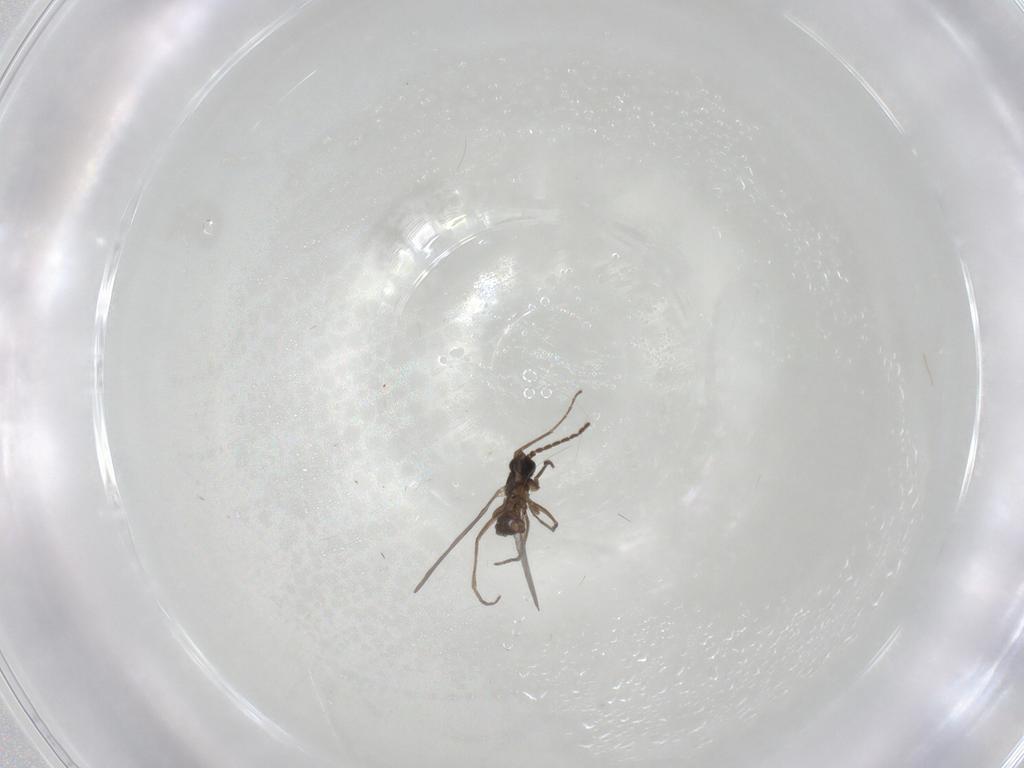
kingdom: Animalia
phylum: Arthropoda
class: Insecta
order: Diptera
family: Sciaridae
